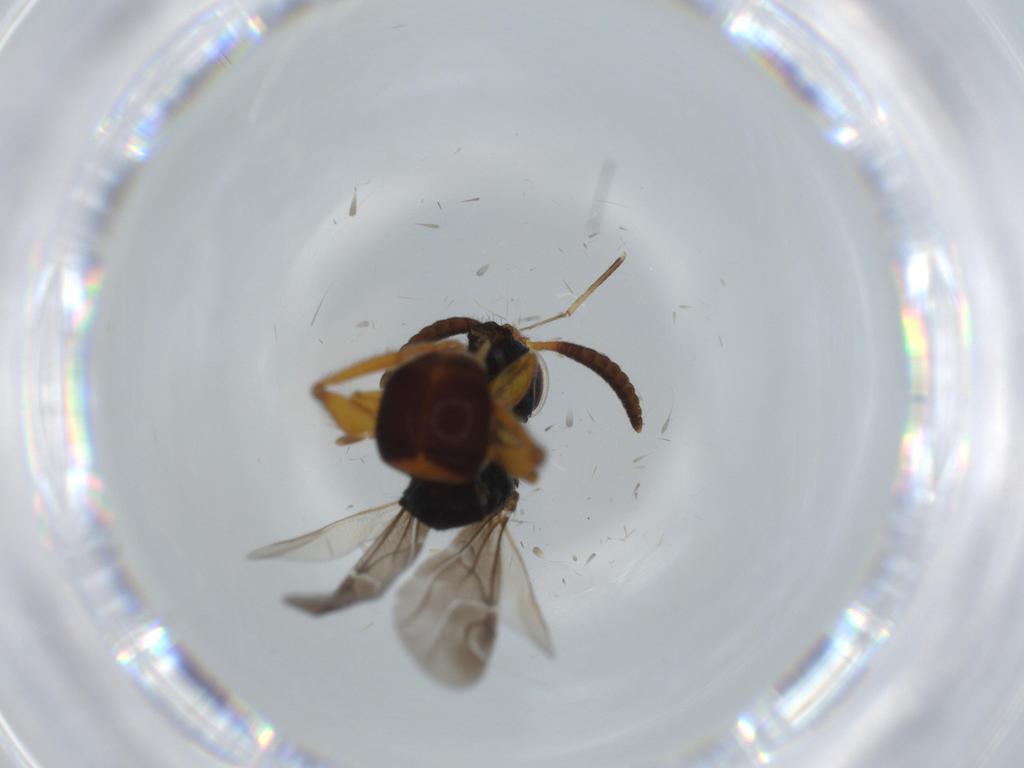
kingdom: Animalia
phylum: Arthropoda
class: Insecta
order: Hymenoptera
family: Chrysididae
